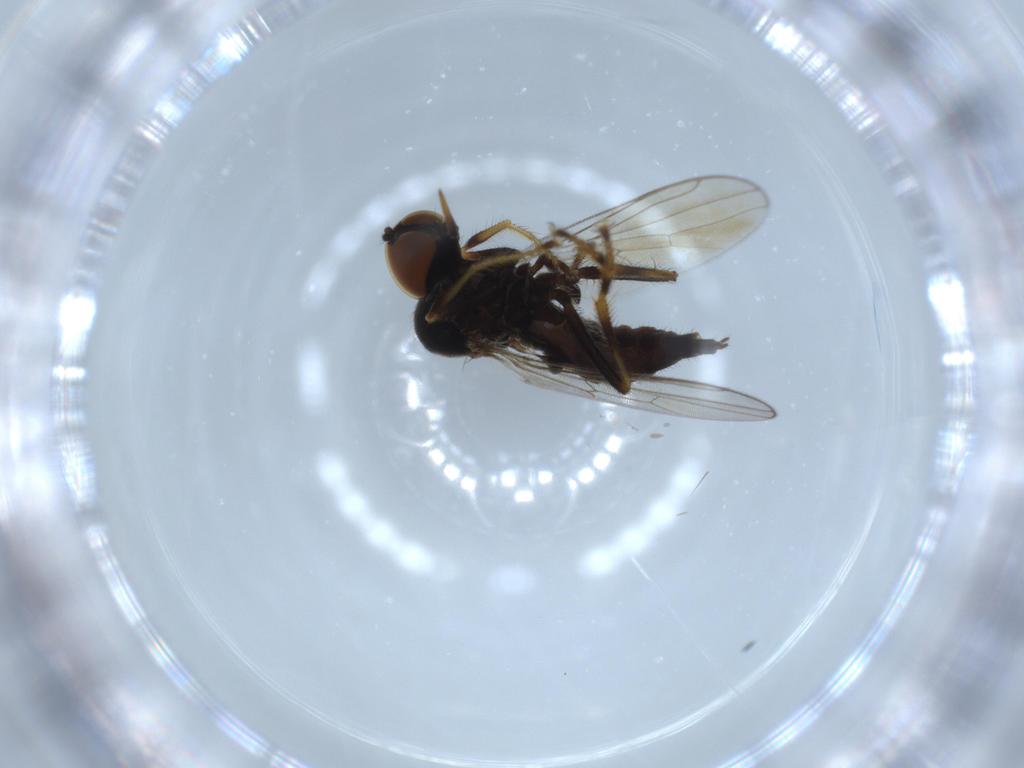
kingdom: Animalia
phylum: Arthropoda
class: Insecta
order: Diptera
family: Hybotidae
